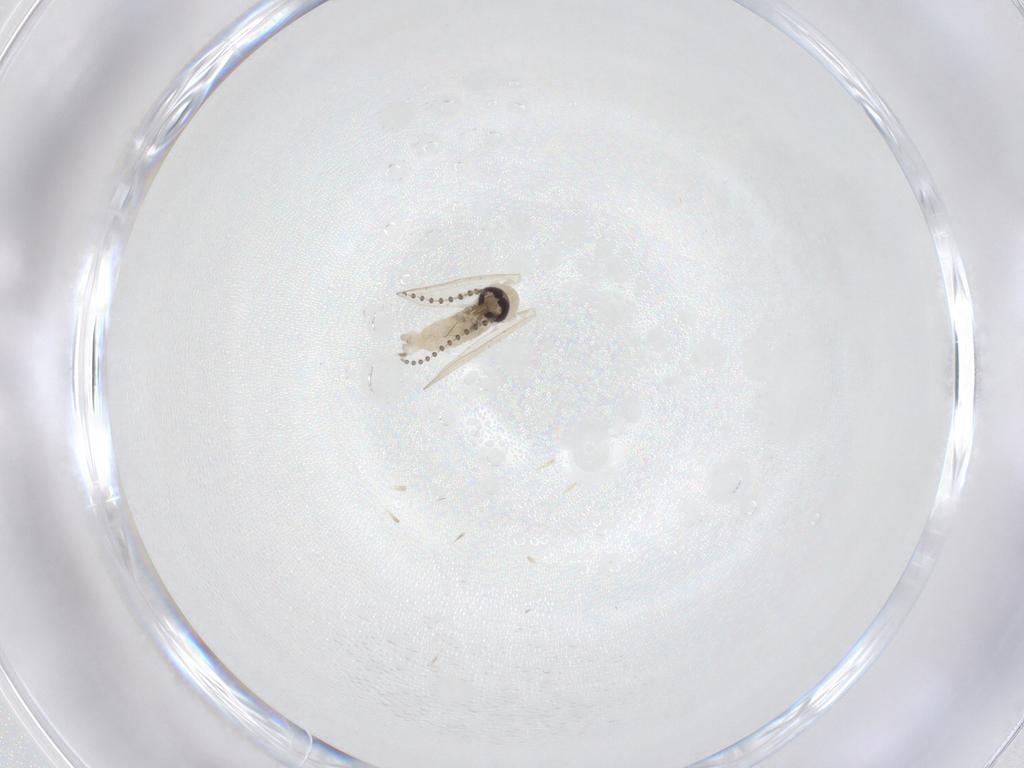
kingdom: Animalia
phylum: Arthropoda
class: Insecta
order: Diptera
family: Psychodidae
